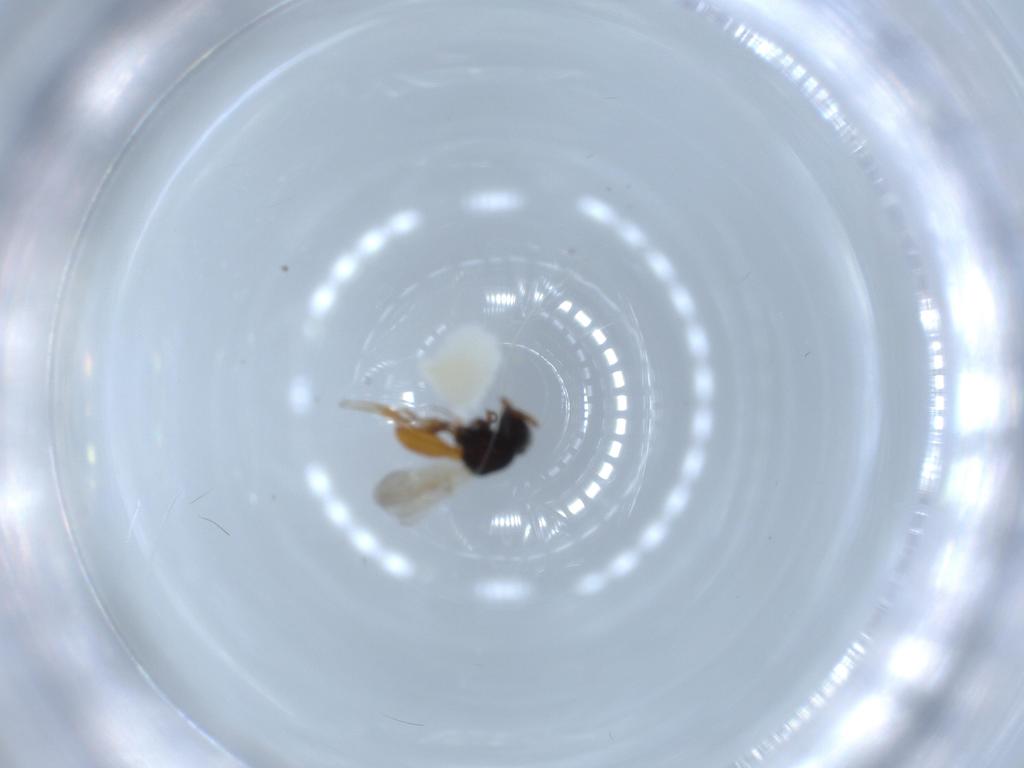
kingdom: Animalia
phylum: Arthropoda
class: Insecta
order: Hymenoptera
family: Scelionidae
